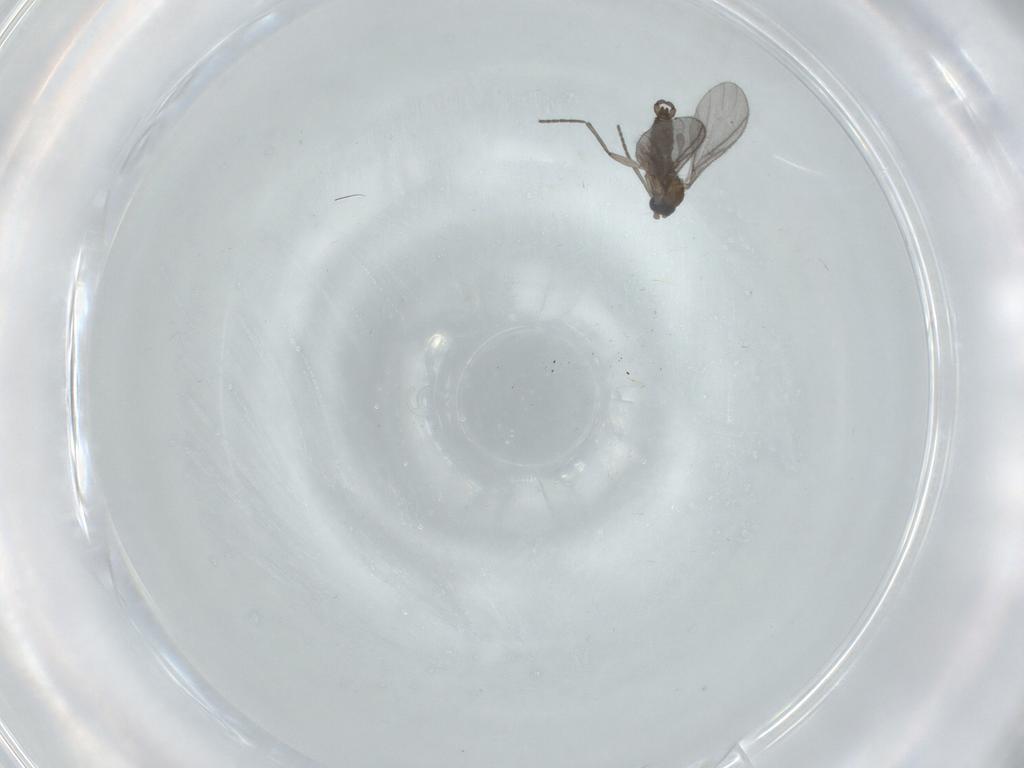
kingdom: Animalia
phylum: Arthropoda
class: Insecta
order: Diptera
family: Sciaridae
